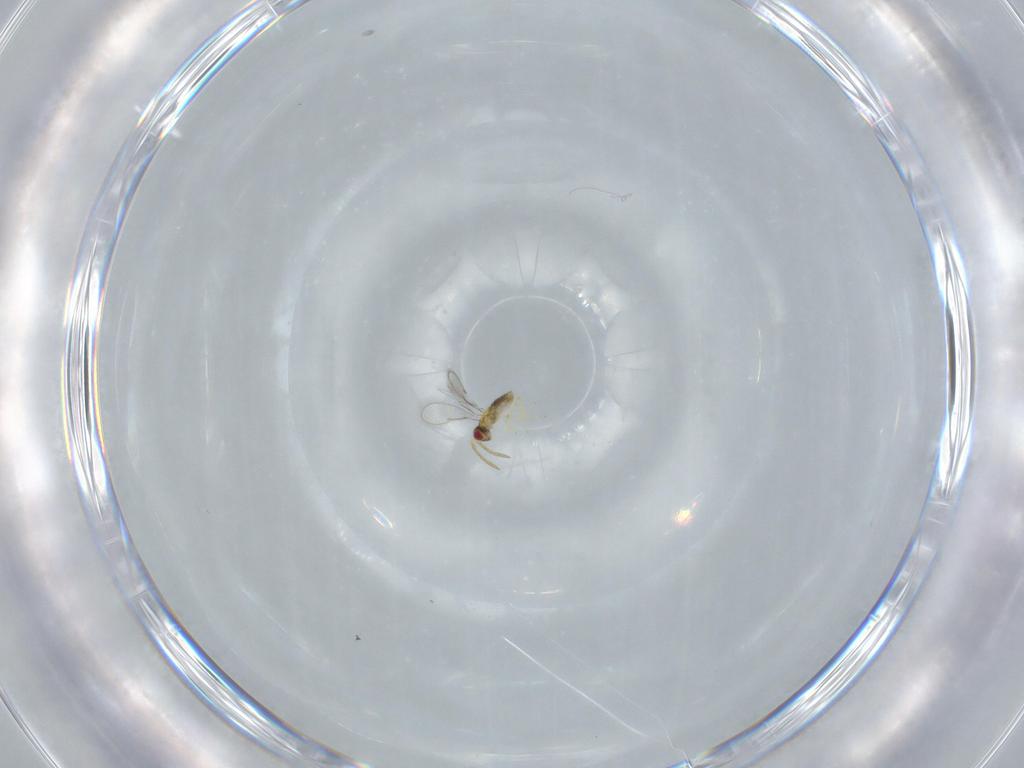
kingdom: Animalia
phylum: Arthropoda
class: Insecta
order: Hymenoptera
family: Aphelinidae
